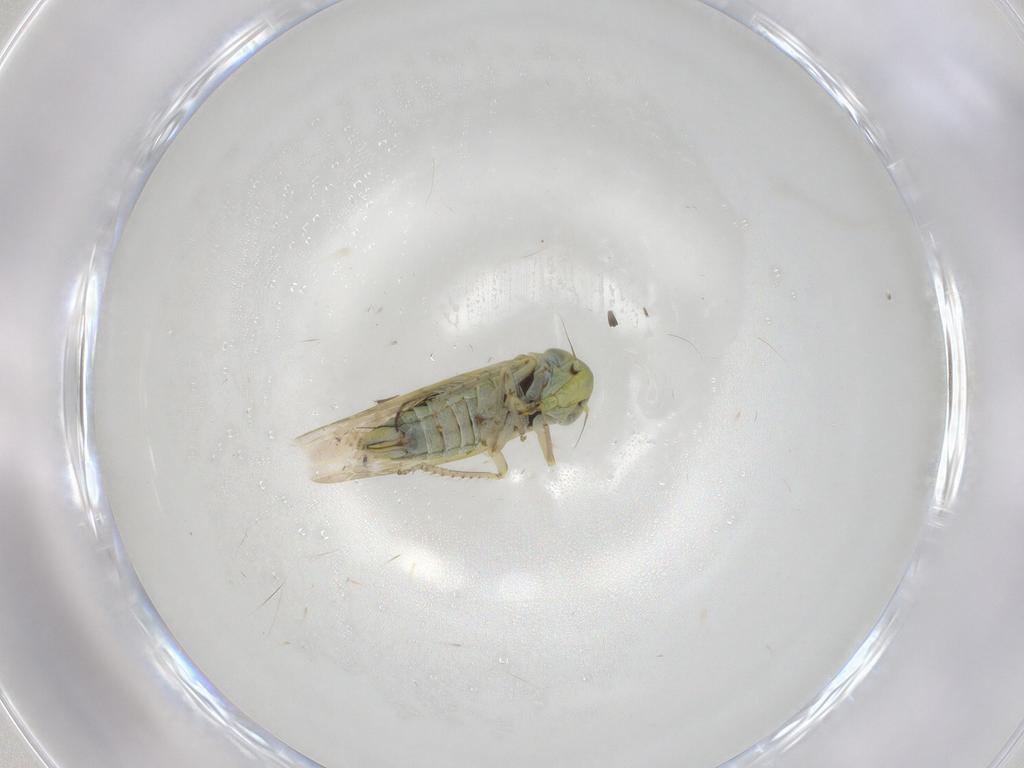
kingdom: Animalia
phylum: Arthropoda
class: Insecta
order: Hemiptera
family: Cicadellidae
